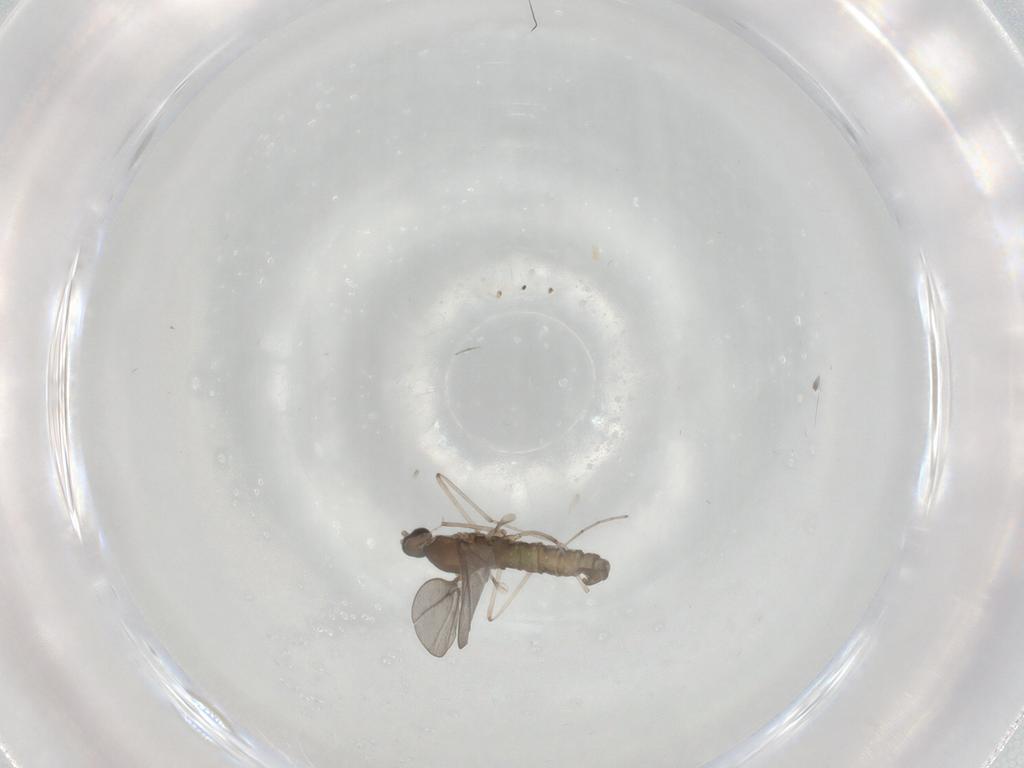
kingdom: Animalia
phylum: Arthropoda
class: Insecta
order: Diptera
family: Cecidomyiidae
